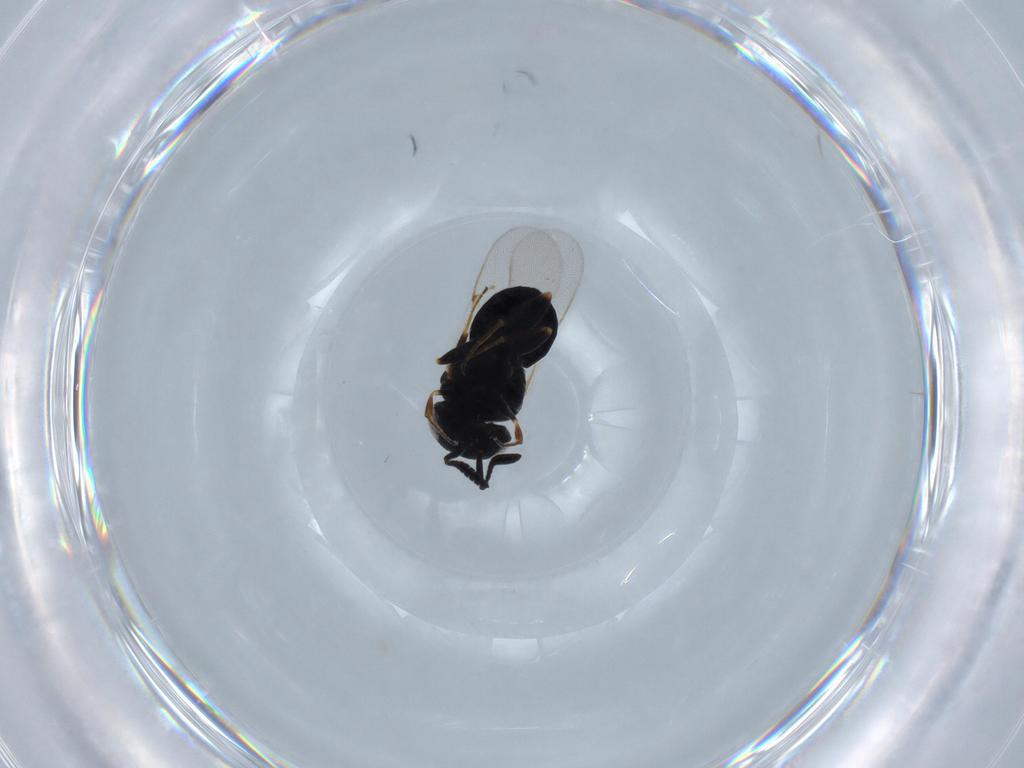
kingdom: Animalia
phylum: Arthropoda
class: Insecta
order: Hymenoptera
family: Scelionidae
